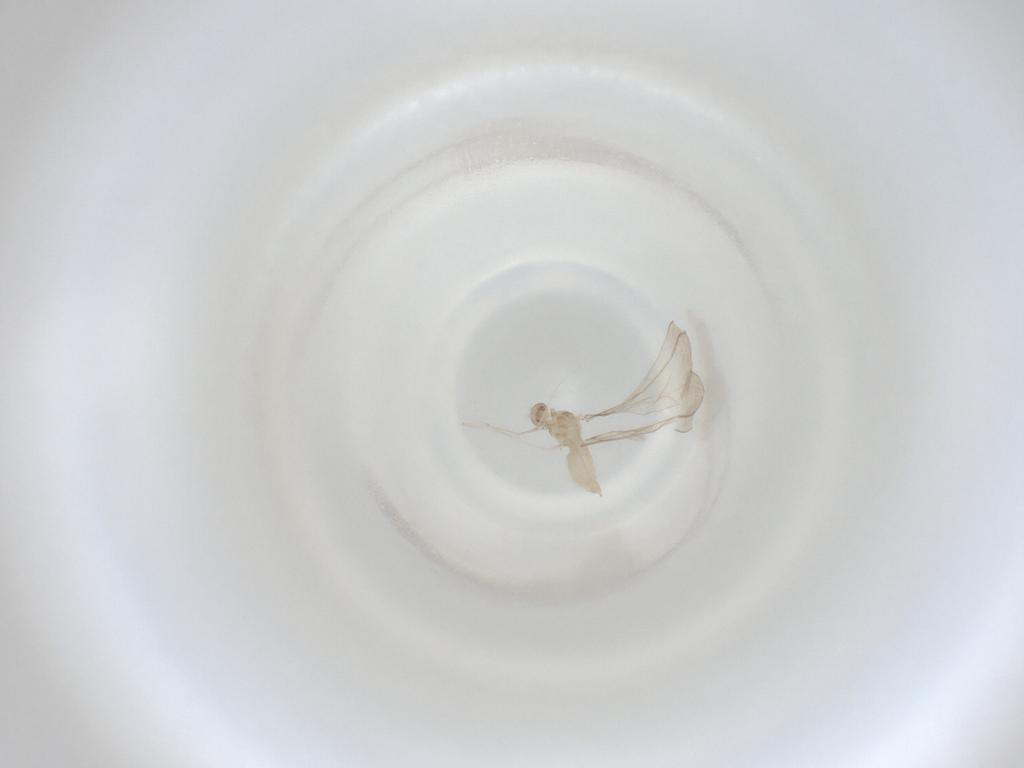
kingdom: Animalia
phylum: Arthropoda
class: Insecta
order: Diptera
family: Cecidomyiidae
